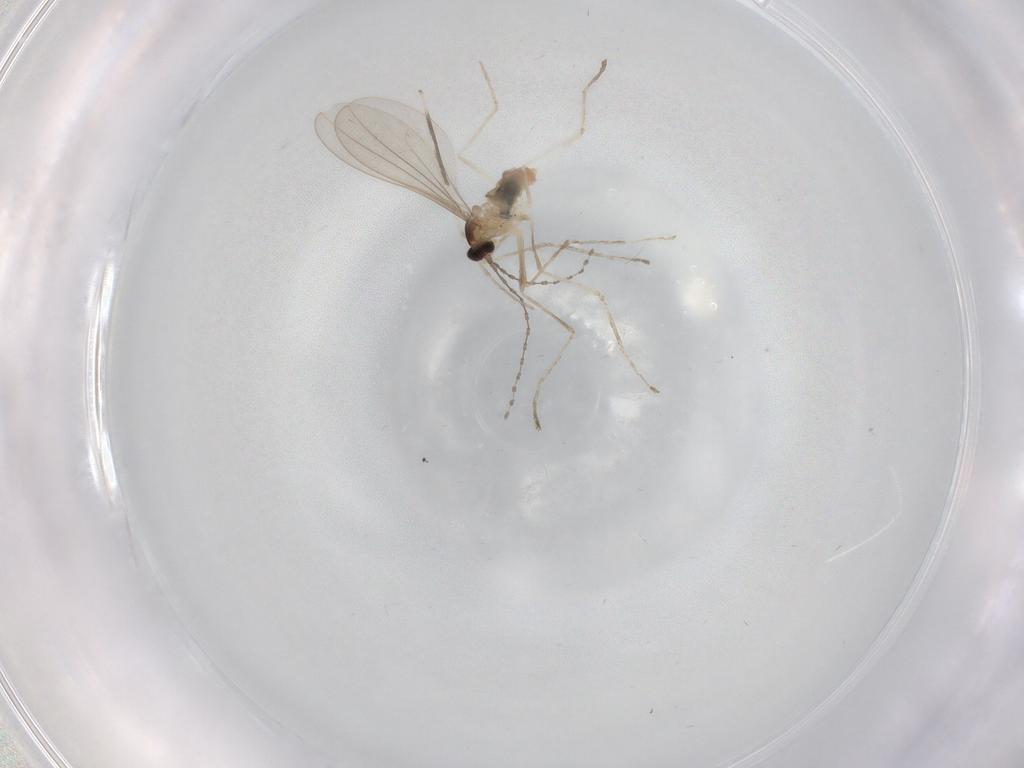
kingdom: Animalia
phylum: Arthropoda
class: Insecta
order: Diptera
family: Cecidomyiidae
